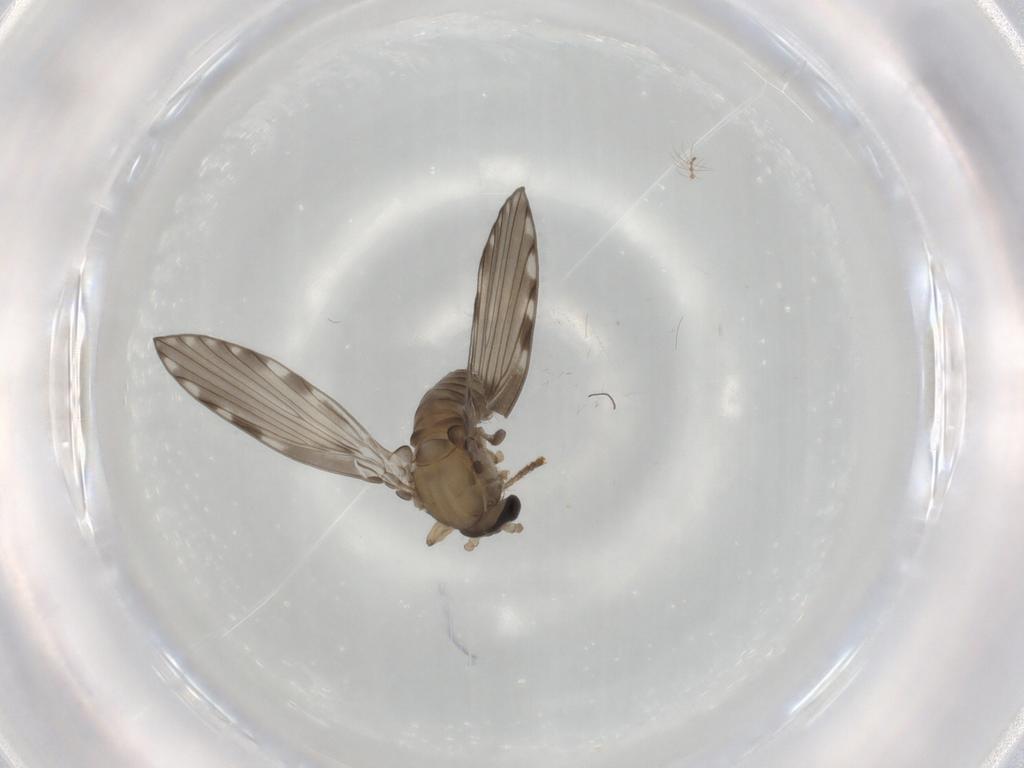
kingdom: Animalia
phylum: Arthropoda
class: Insecta
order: Diptera
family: Psychodidae
